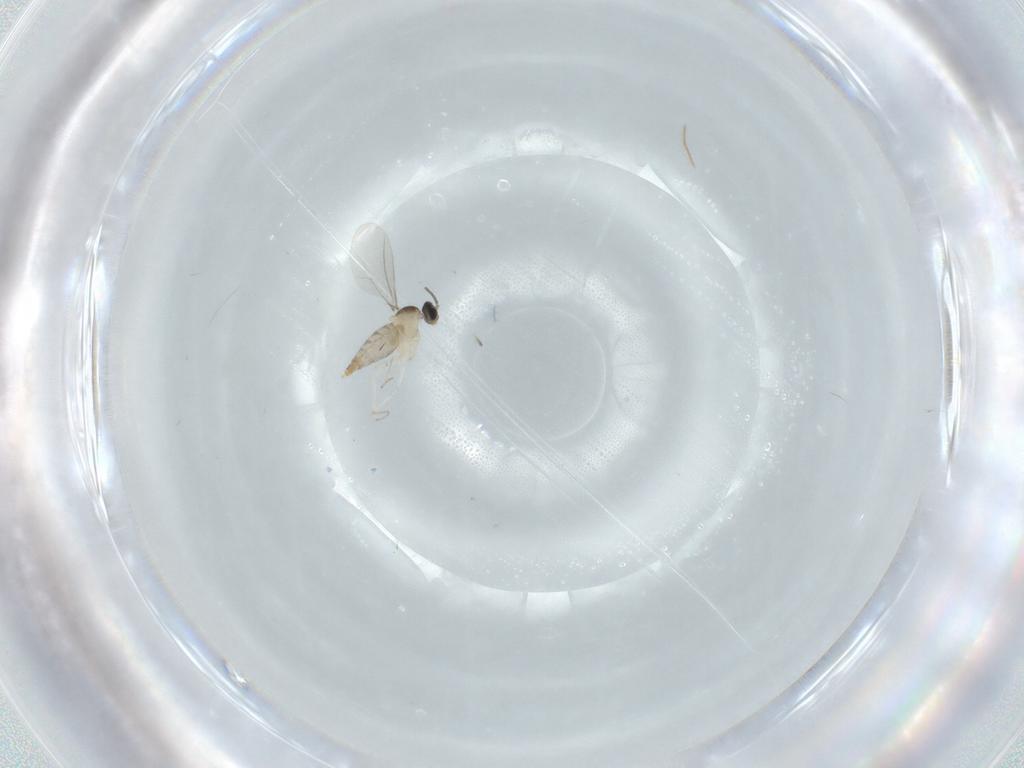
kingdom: Animalia
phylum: Arthropoda
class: Insecta
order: Diptera
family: Cecidomyiidae
